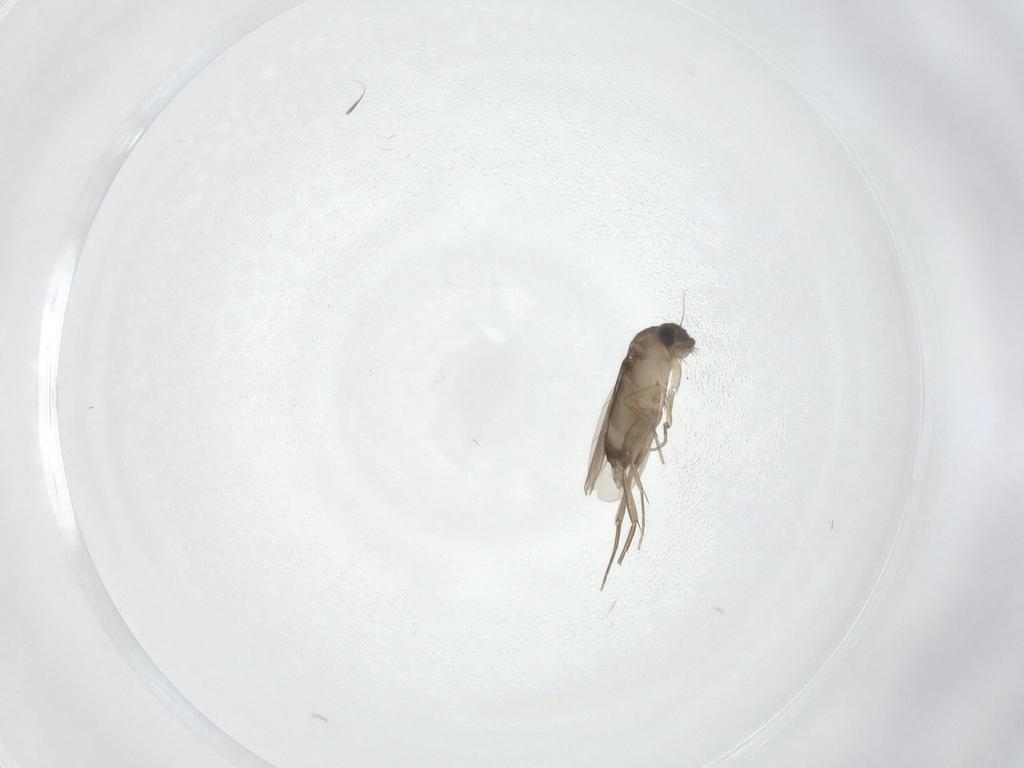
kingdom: Animalia
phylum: Arthropoda
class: Insecta
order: Diptera
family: Phoridae
